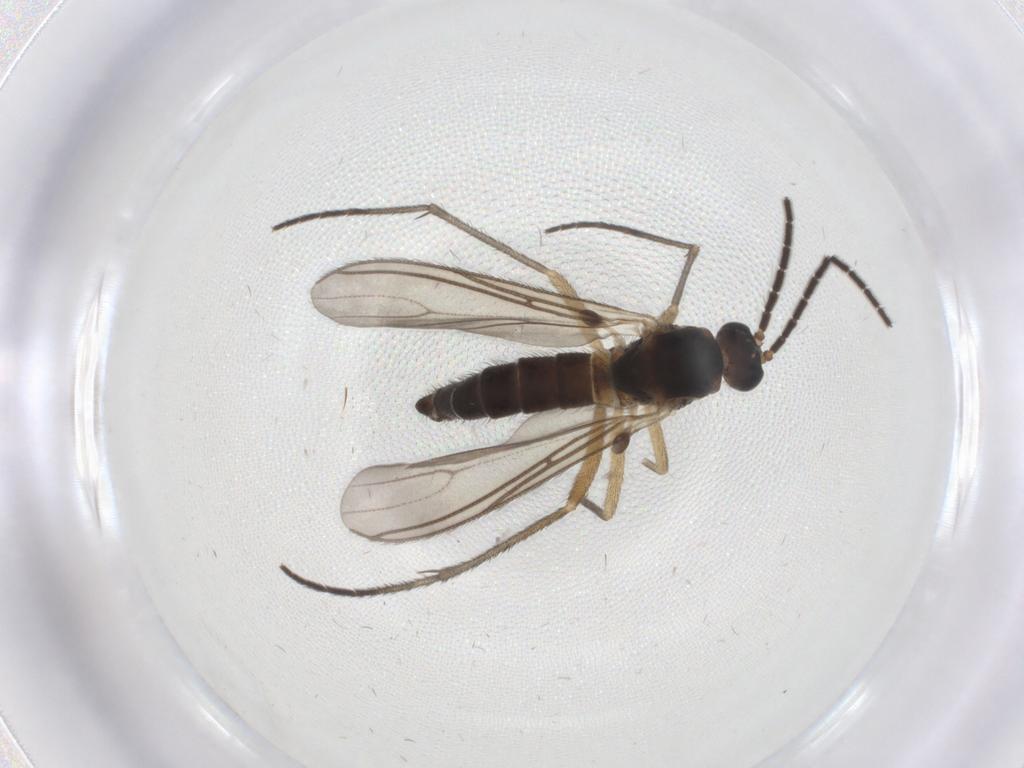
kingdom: Animalia
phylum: Arthropoda
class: Insecta
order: Diptera
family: Sciaridae
